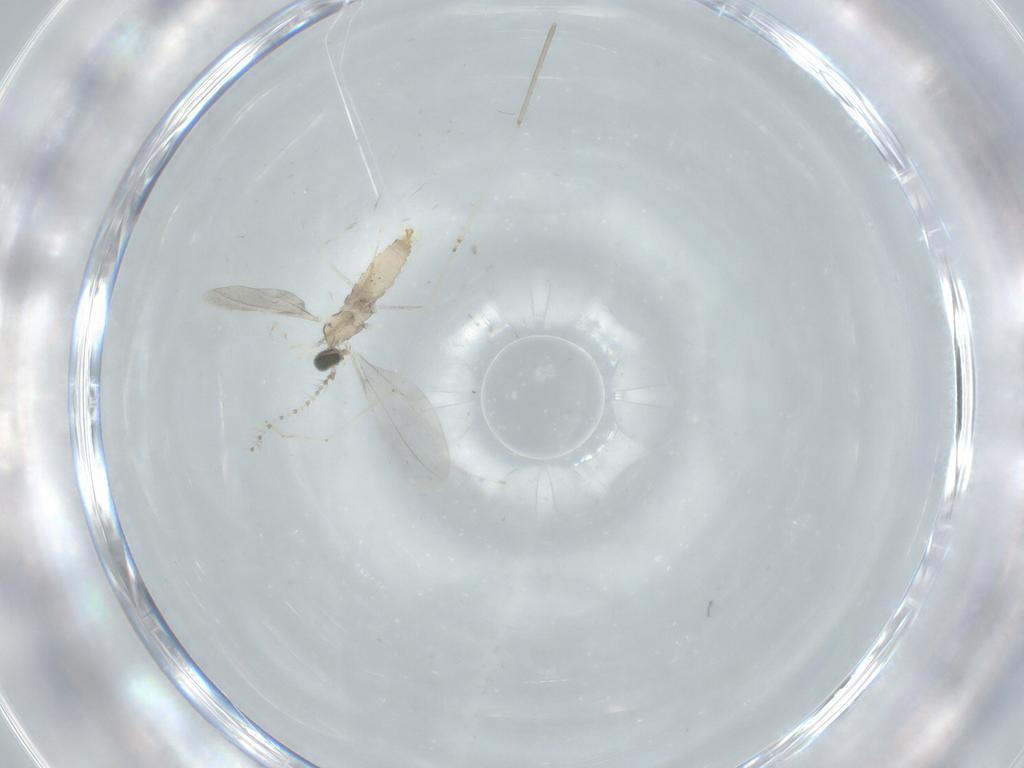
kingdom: Animalia
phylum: Arthropoda
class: Insecta
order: Diptera
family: Cecidomyiidae
